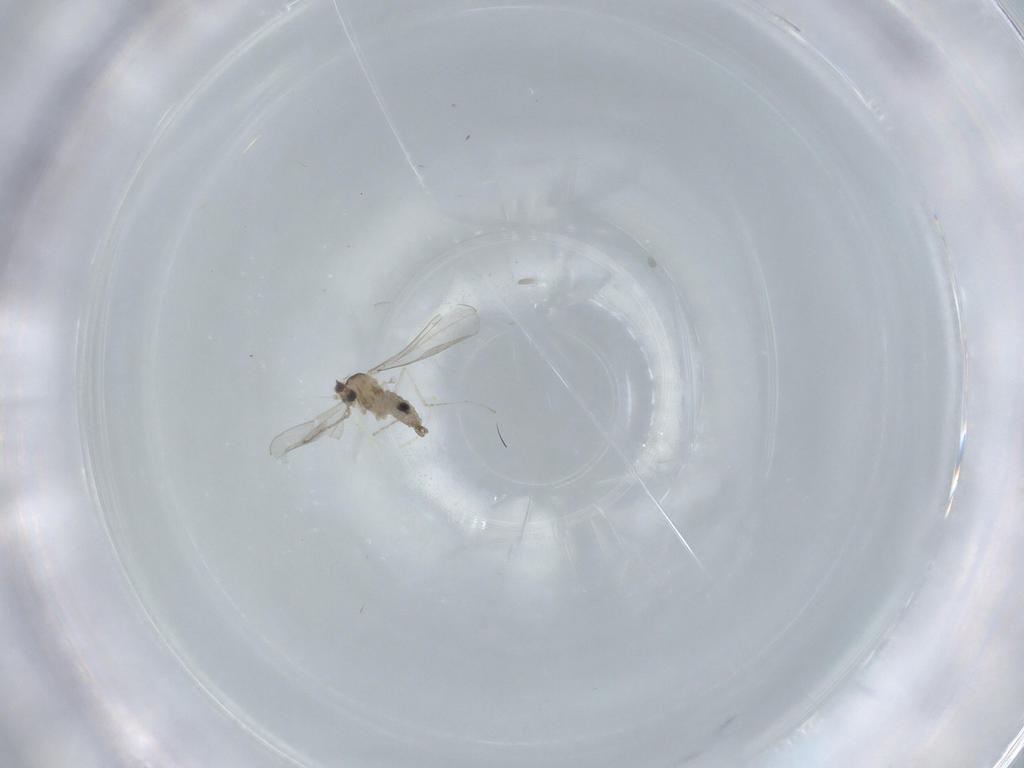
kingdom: Animalia
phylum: Arthropoda
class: Insecta
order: Diptera
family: Cecidomyiidae
